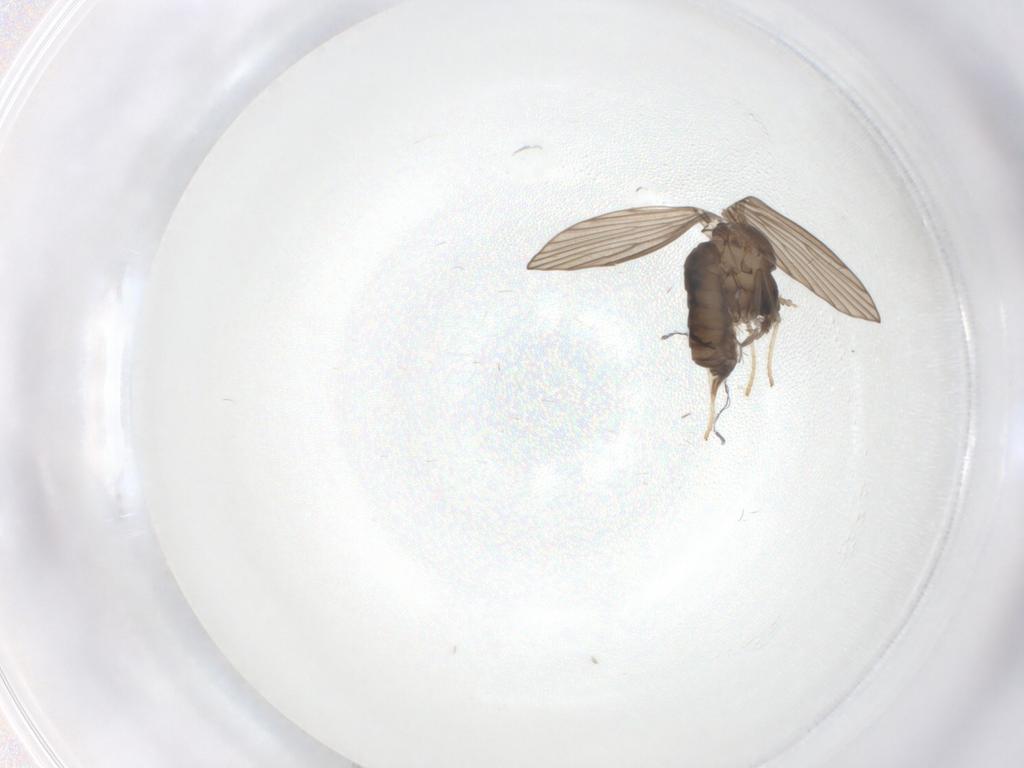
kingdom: Animalia
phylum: Arthropoda
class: Insecta
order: Diptera
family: Psychodidae
